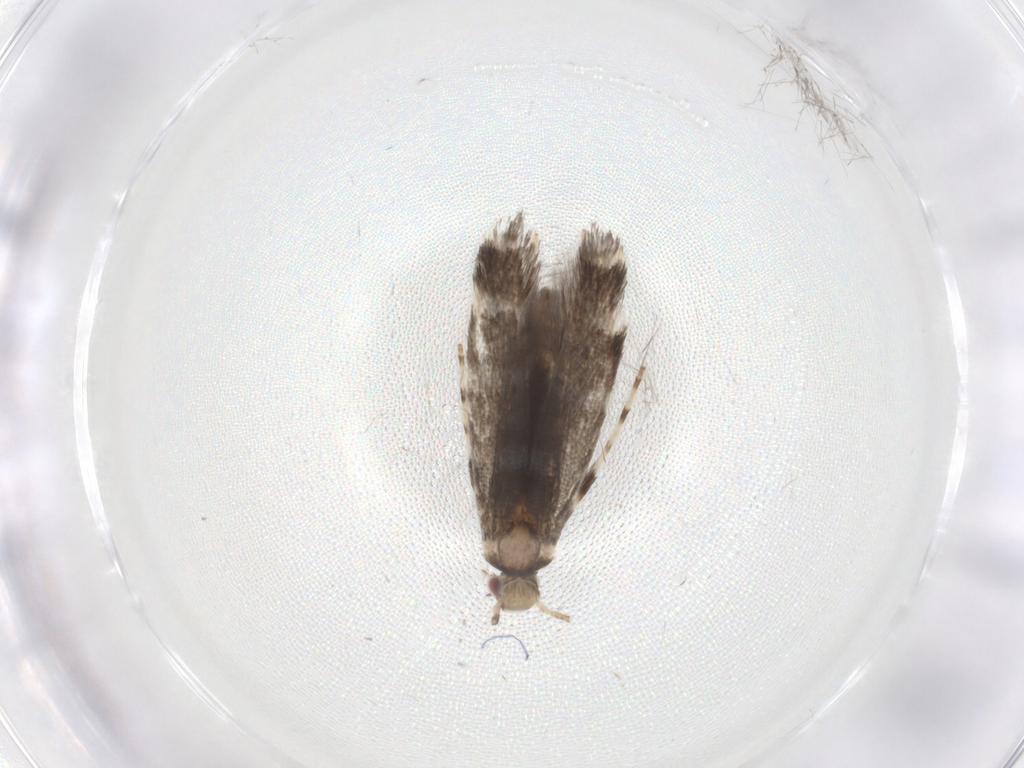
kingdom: Animalia
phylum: Arthropoda
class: Insecta
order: Lepidoptera
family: Gracillariidae
